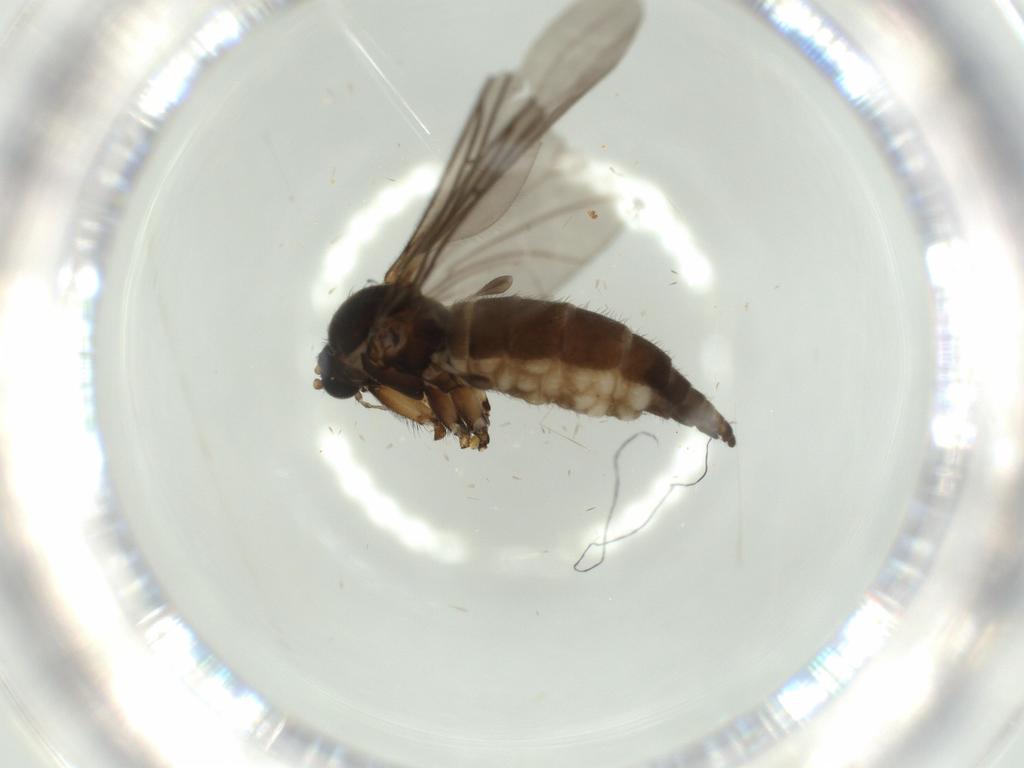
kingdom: Animalia
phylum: Arthropoda
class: Insecta
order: Diptera
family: Sciaridae
